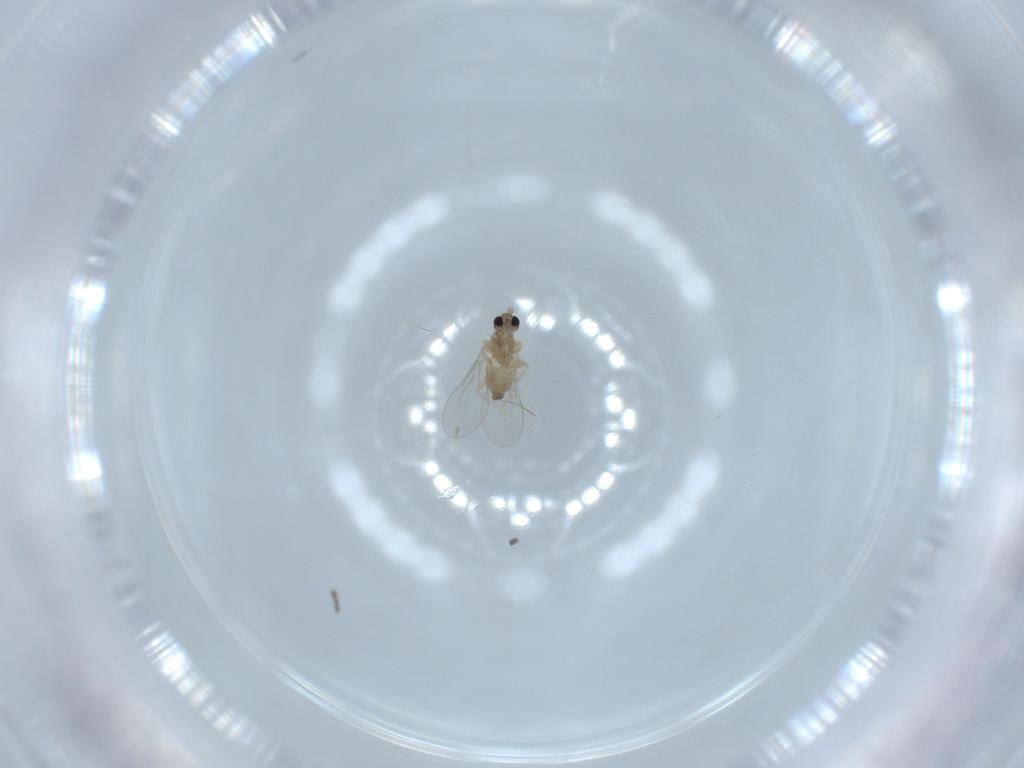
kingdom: Animalia
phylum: Arthropoda
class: Insecta
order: Diptera
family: Cecidomyiidae
